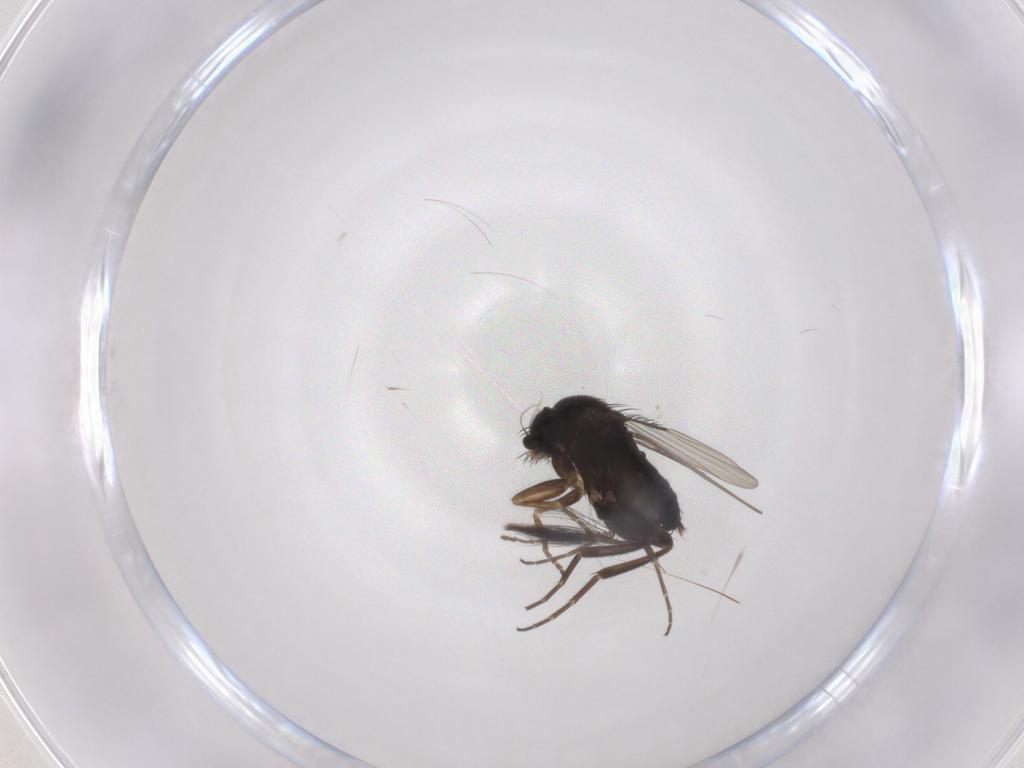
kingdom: Animalia
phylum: Arthropoda
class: Insecta
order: Diptera
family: Phoridae
